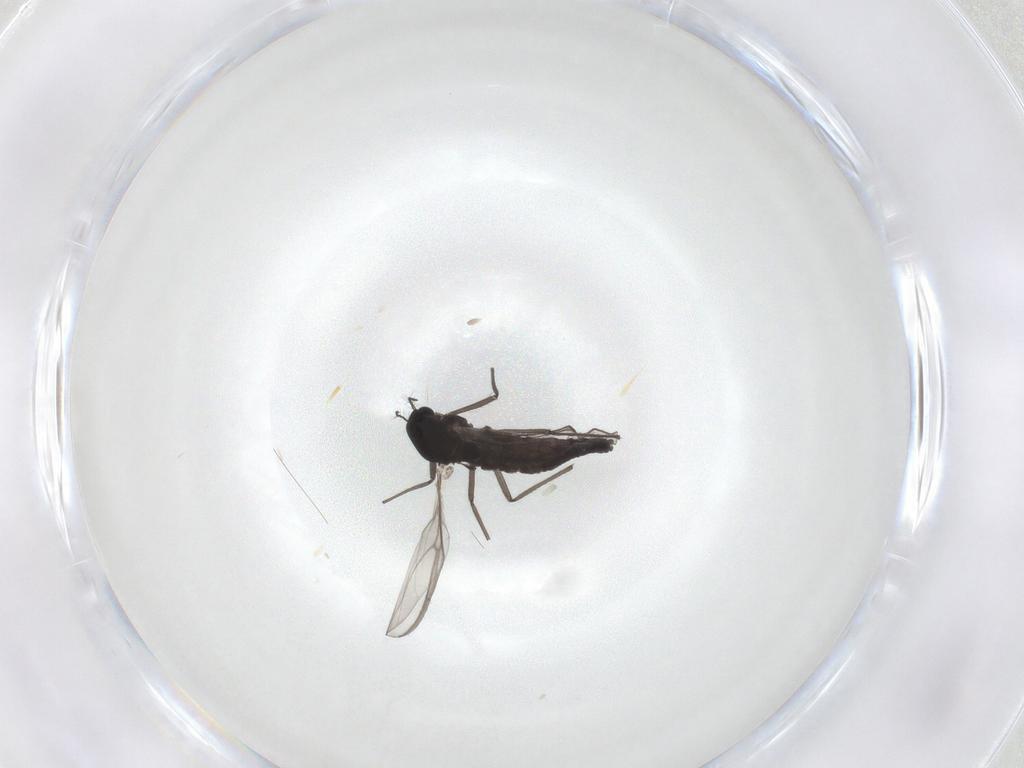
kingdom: Animalia
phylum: Arthropoda
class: Insecta
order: Diptera
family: Chironomidae
